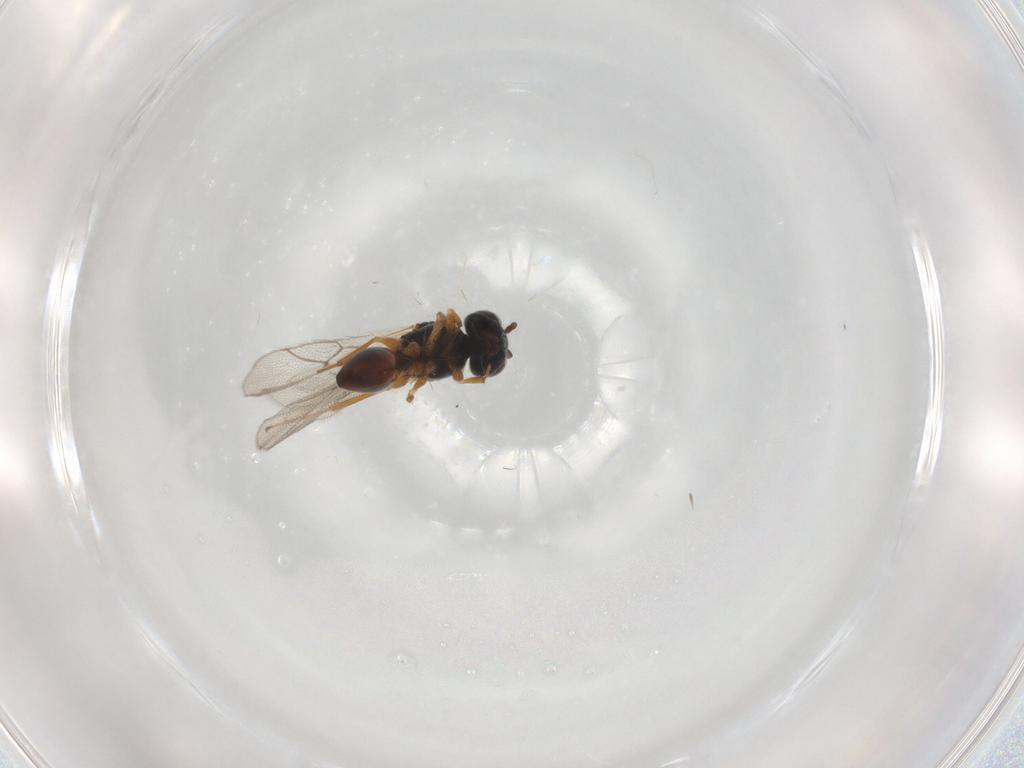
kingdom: Animalia
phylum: Arthropoda
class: Insecta
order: Hymenoptera
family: Figitidae
